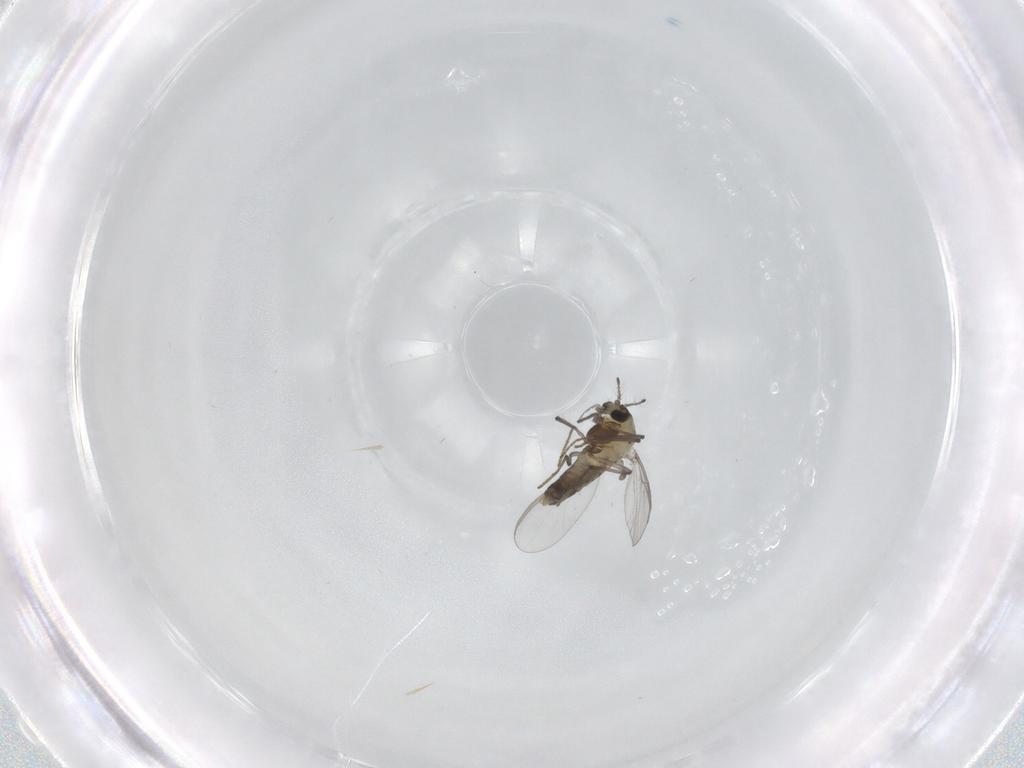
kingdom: Animalia
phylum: Arthropoda
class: Insecta
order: Diptera
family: Chironomidae
